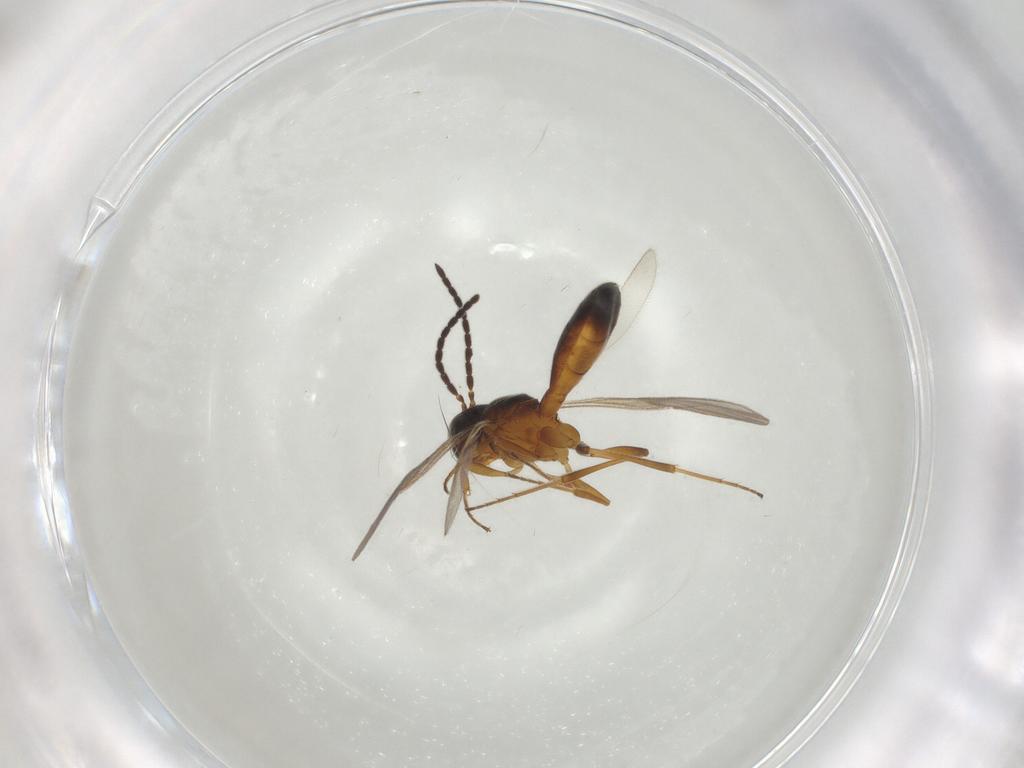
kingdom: Animalia
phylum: Arthropoda
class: Insecta
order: Hymenoptera
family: Scelionidae
